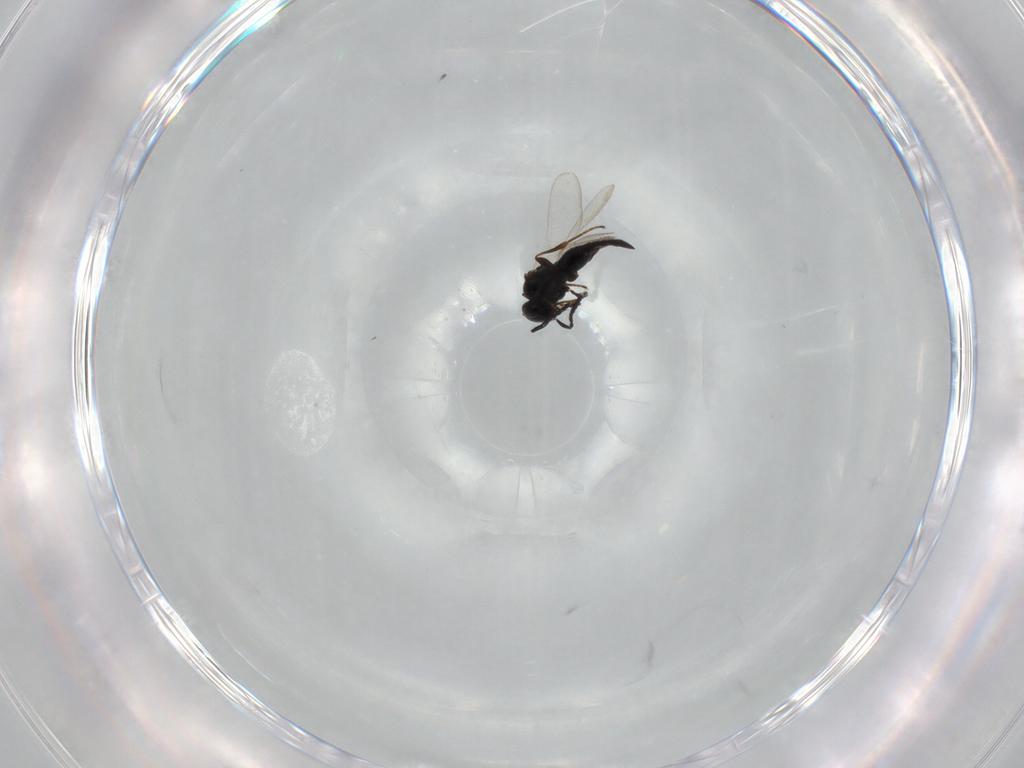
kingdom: Animalia
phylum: Arthropoda
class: Insecta
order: Hymenoptera
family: Platygastridae
